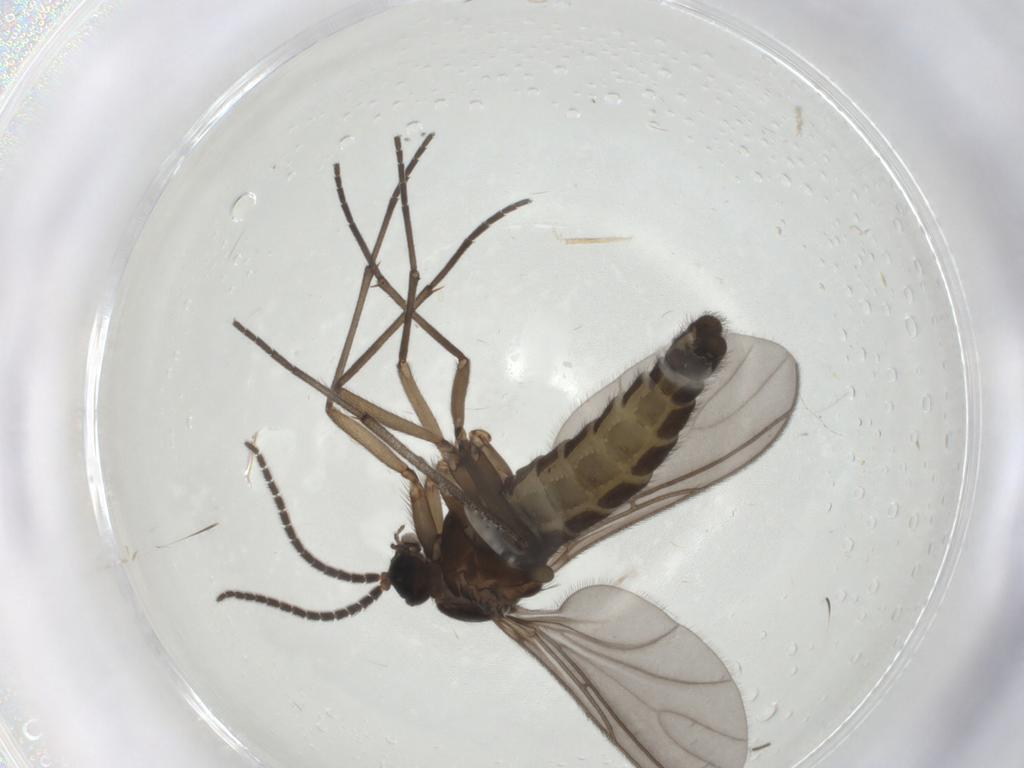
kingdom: Animalia
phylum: Arthropoda
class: Insecta
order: Diptera
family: Sciaridae
